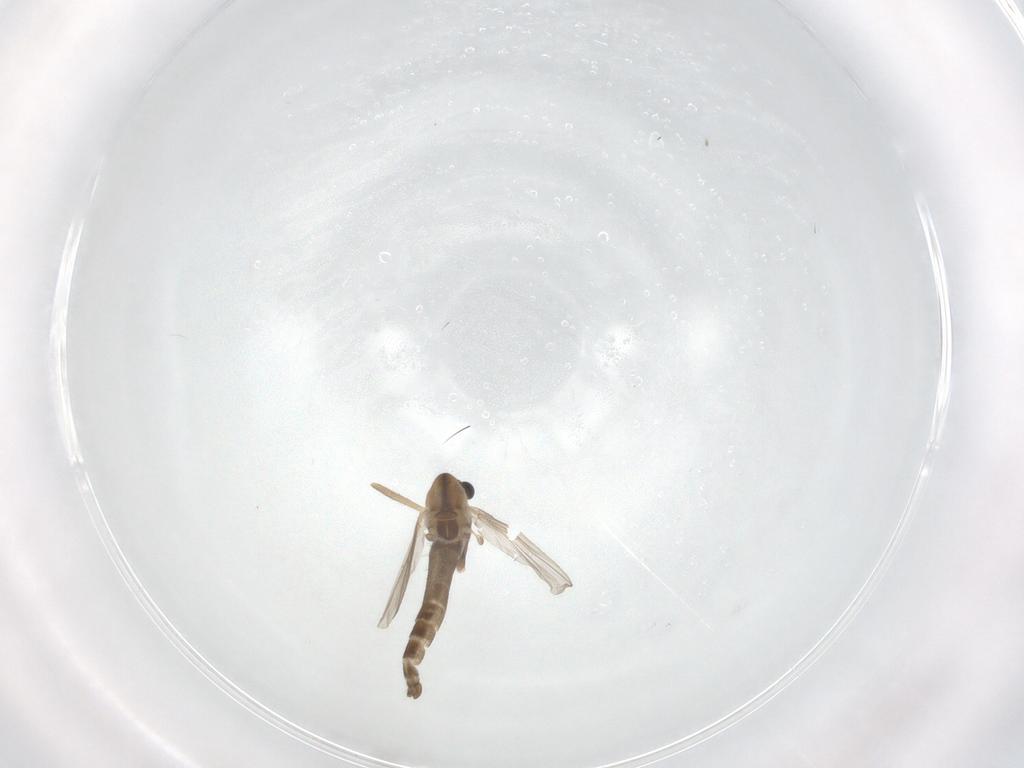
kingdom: Animalia
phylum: Arthropoda
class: Insecta
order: Diptera
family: Chironomidae
